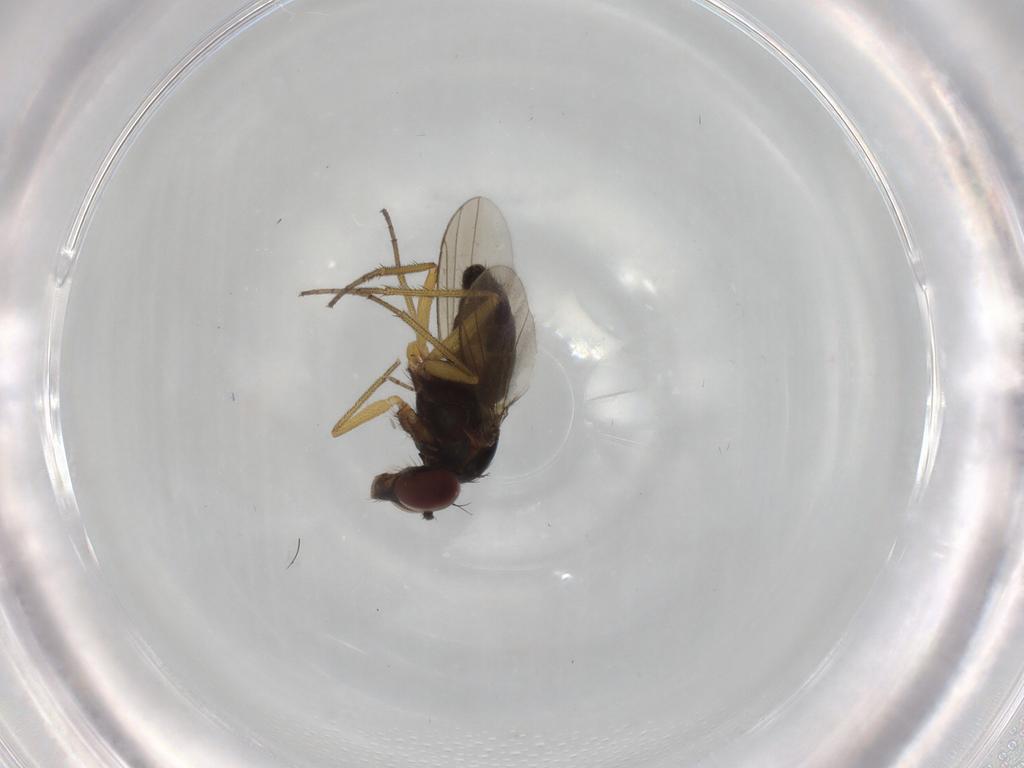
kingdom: Animalia
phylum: Arthropoda
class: Insecta
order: Diptera
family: Dolichopodidae
